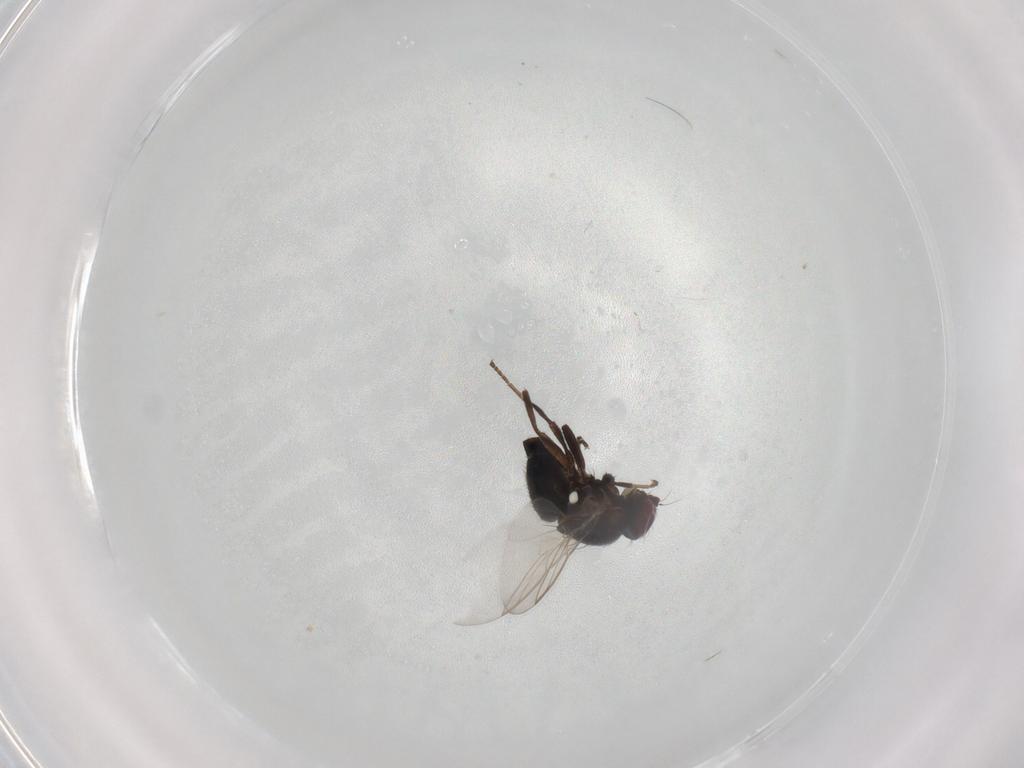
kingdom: Animalia
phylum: Arthropoda
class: Insecta
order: Diptera
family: Agromyzidae
